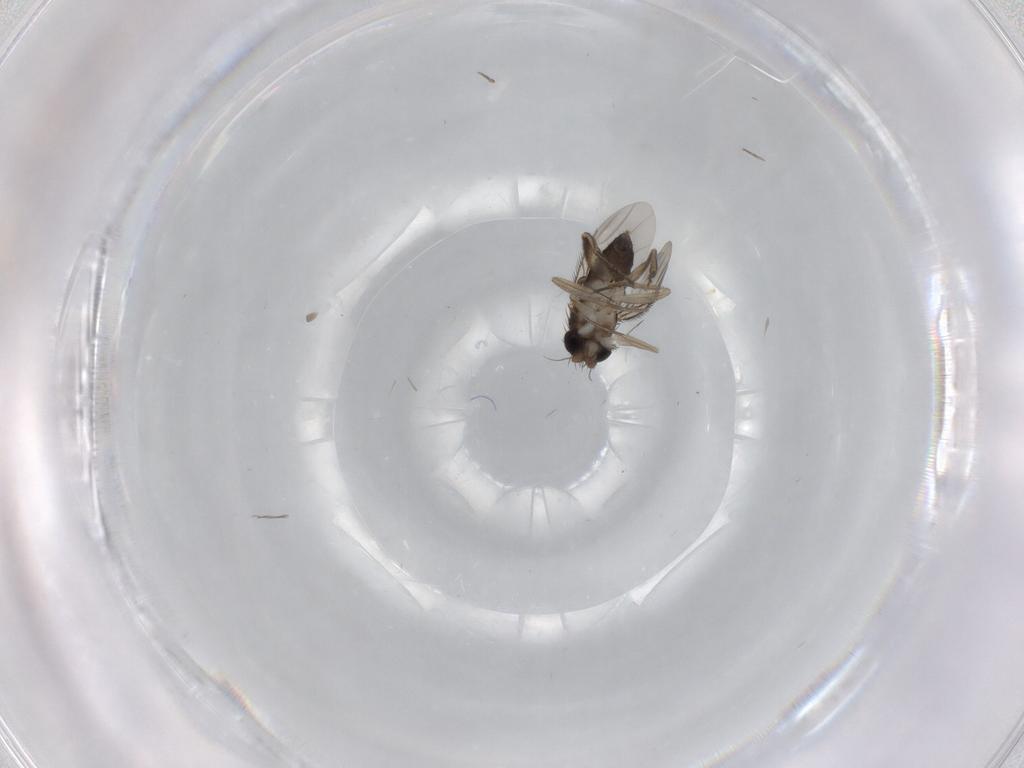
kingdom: Animalia
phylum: Arthropoda
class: Insecta
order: Diptera
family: Phoridae
